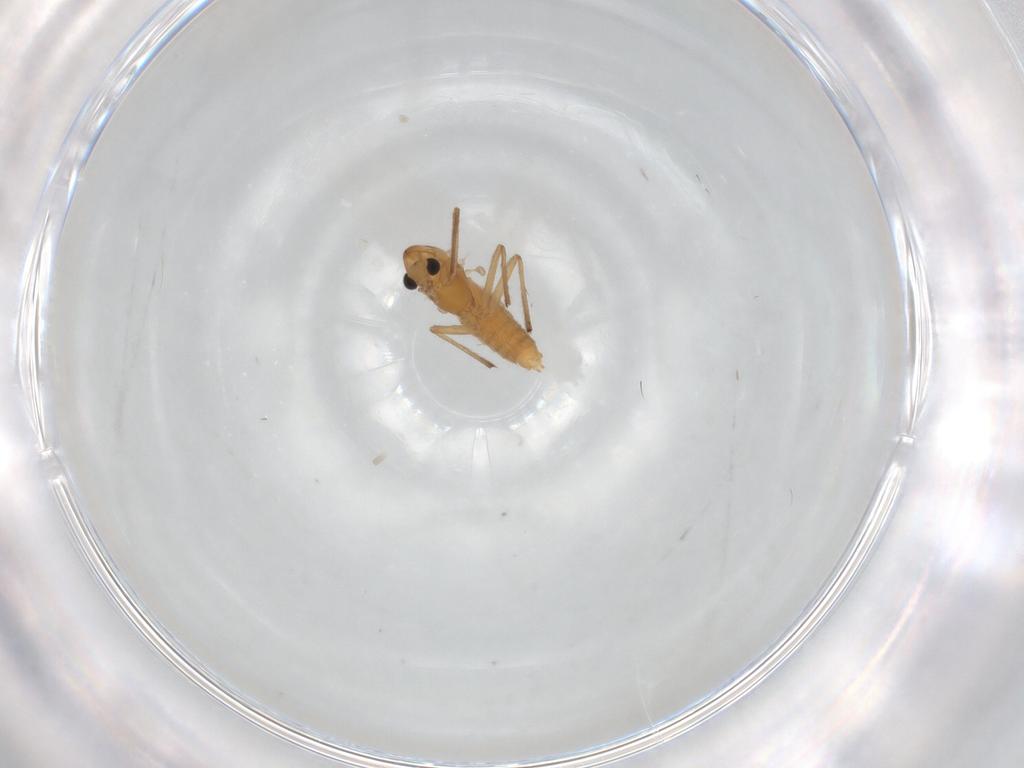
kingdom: Animalia
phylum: Arthropoda
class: Insecta
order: Diptera
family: Chironomidae
